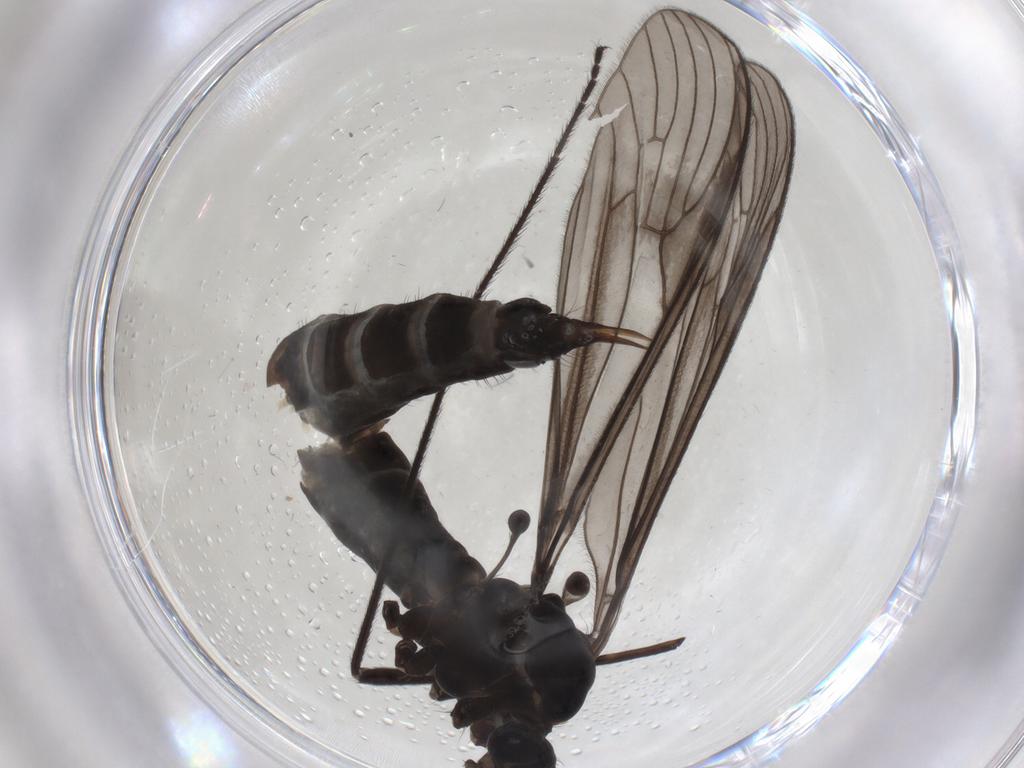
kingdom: Animalia
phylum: Arthropoda
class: Insecta
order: Diptera
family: Limoniidae
